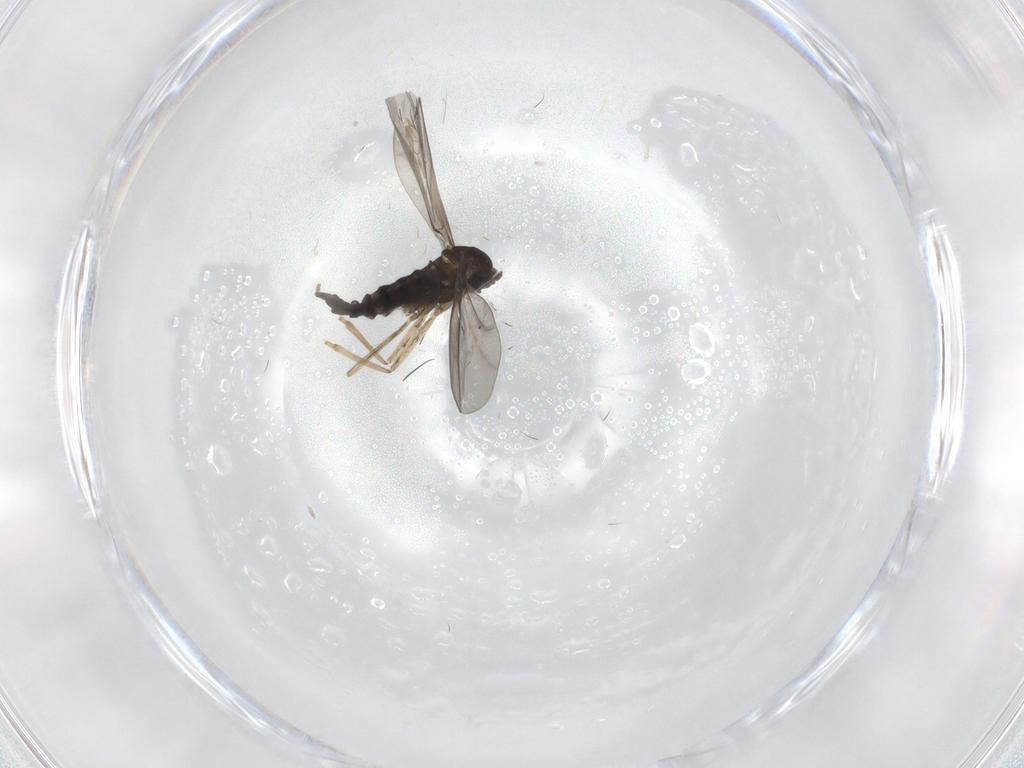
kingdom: Animalia
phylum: Arthropoda
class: Insecta
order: Diptera
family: Cecidomyiidae
